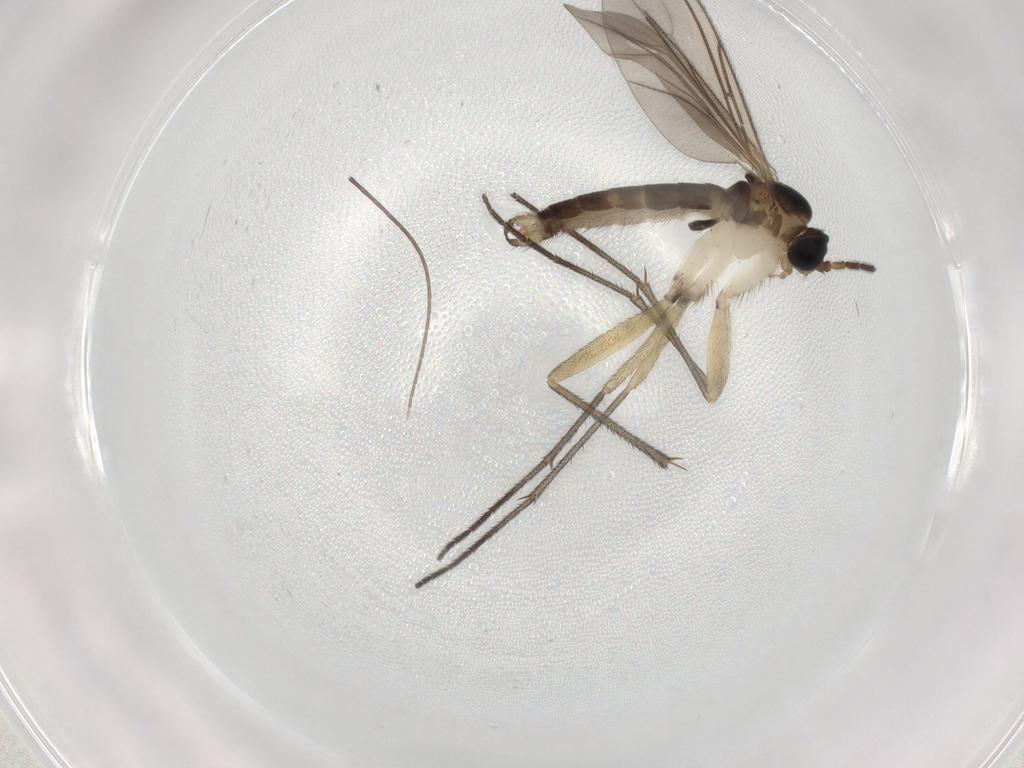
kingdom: Animalia
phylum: Arthropoda
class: Insecta
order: Diptera
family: Sciaridae
